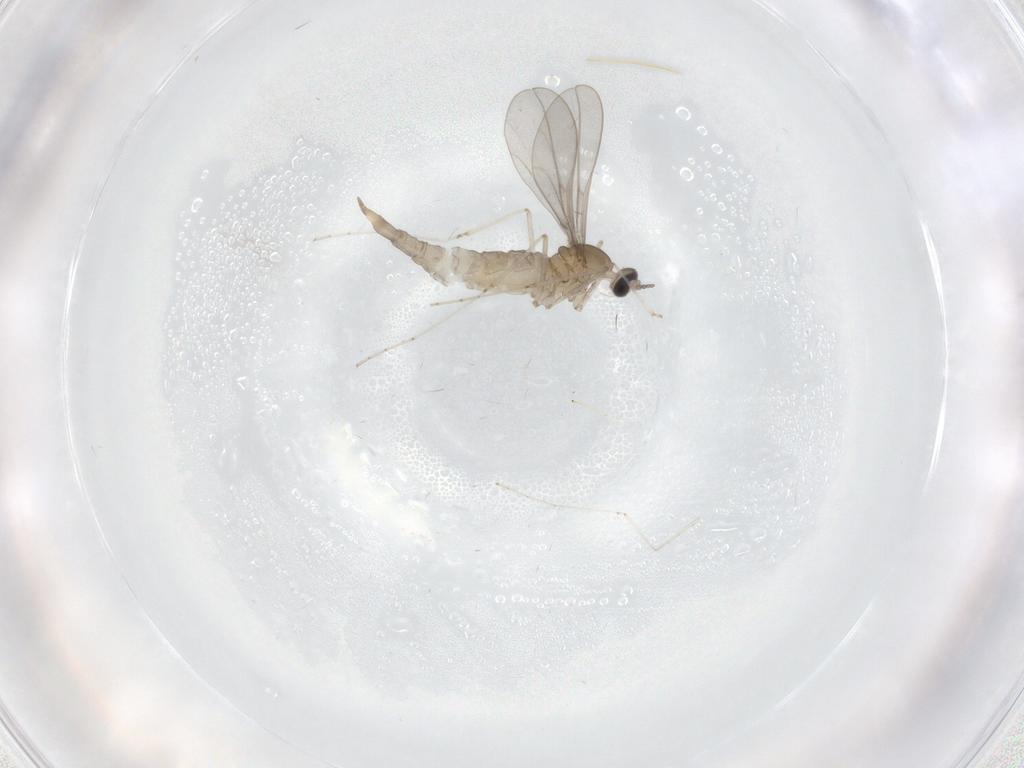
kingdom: Animalia
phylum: Arthropoda
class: Insecta
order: Diptera
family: Cecidomyiidae
